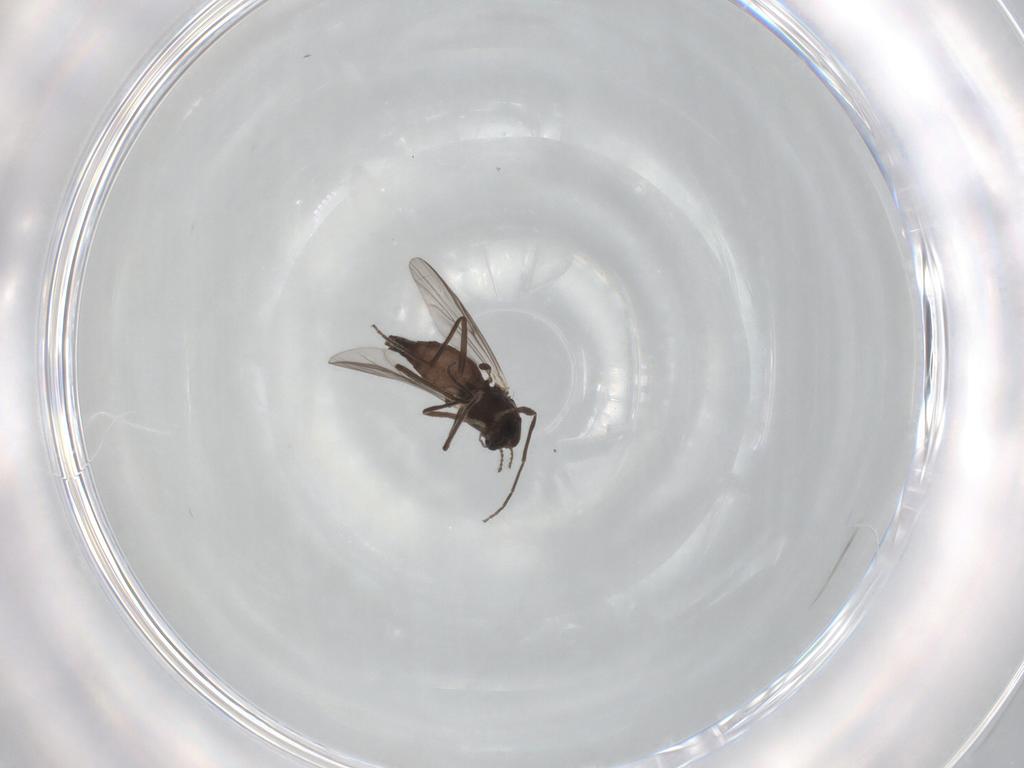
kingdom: Animalia
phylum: Arthropoda
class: Insecta
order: Diptera
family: Chironomidae
